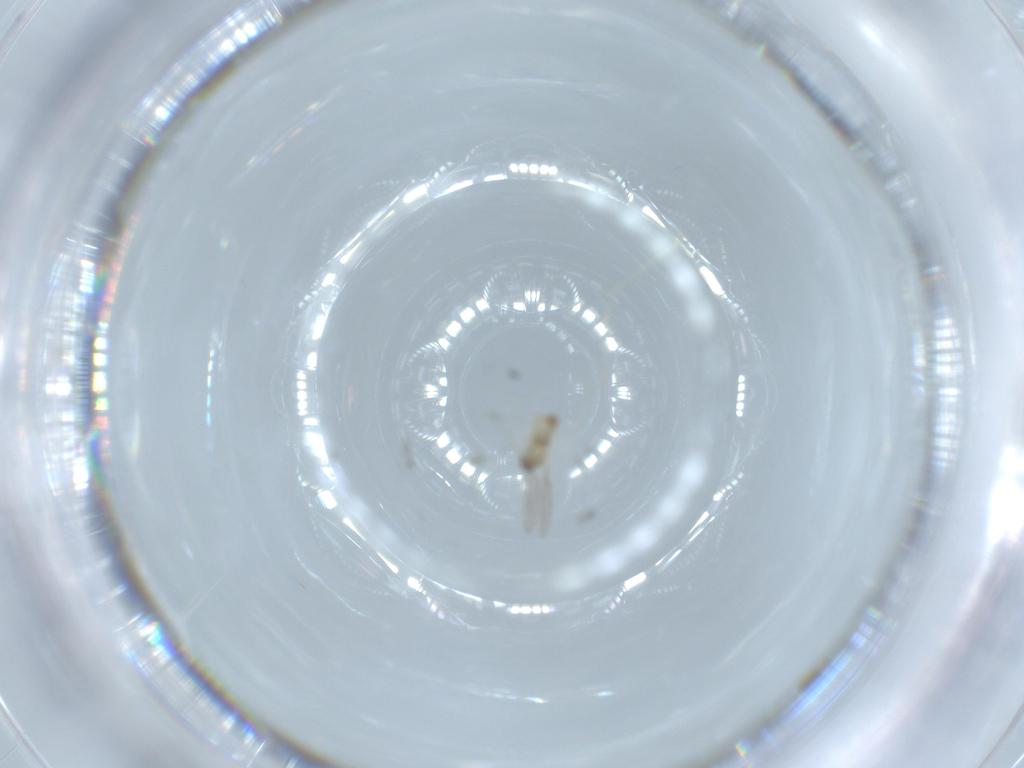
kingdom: Animalia
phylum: Arthropoda
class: Insecta
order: Diptera
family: Cecidomyiidae
